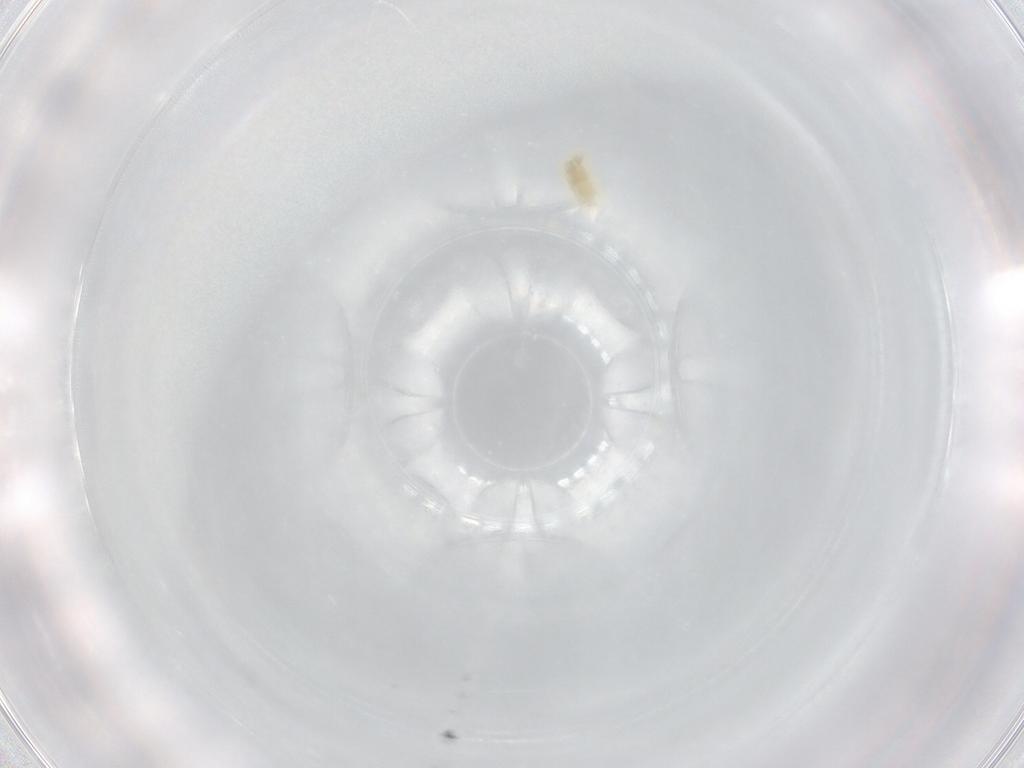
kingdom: Animalia
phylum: Arthropoda
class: Arachnida
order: Trombidiformes
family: Eupodidae
